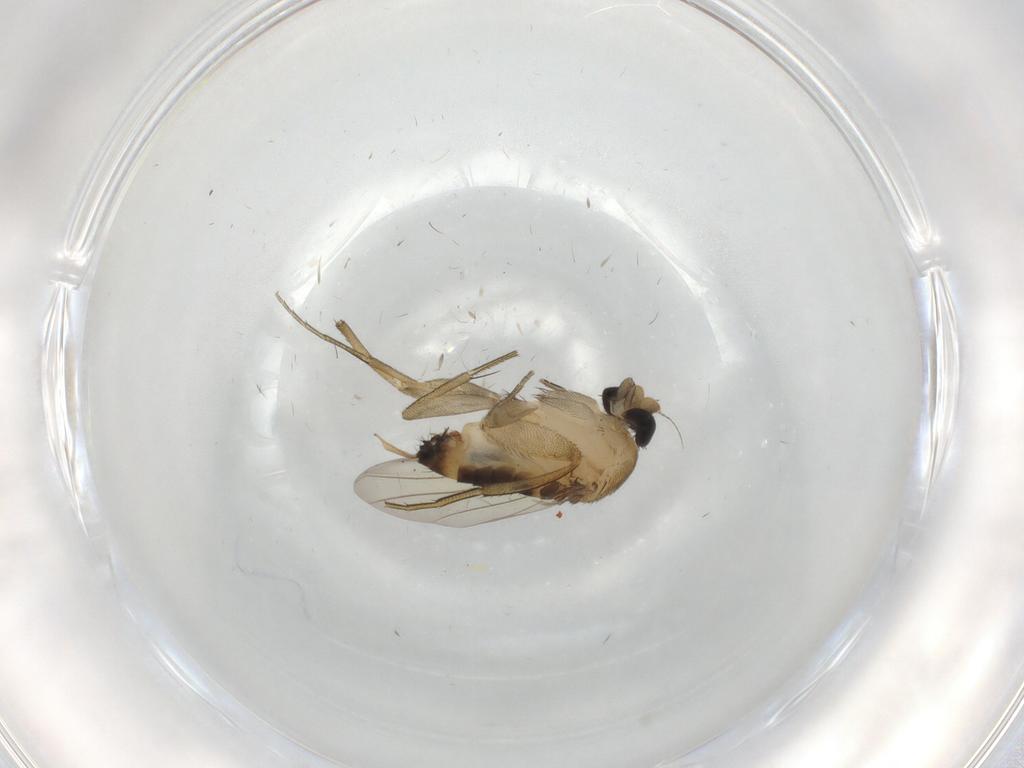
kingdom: Animalia
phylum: Arthropoda
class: Insecta
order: Diptera
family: Phoridae
